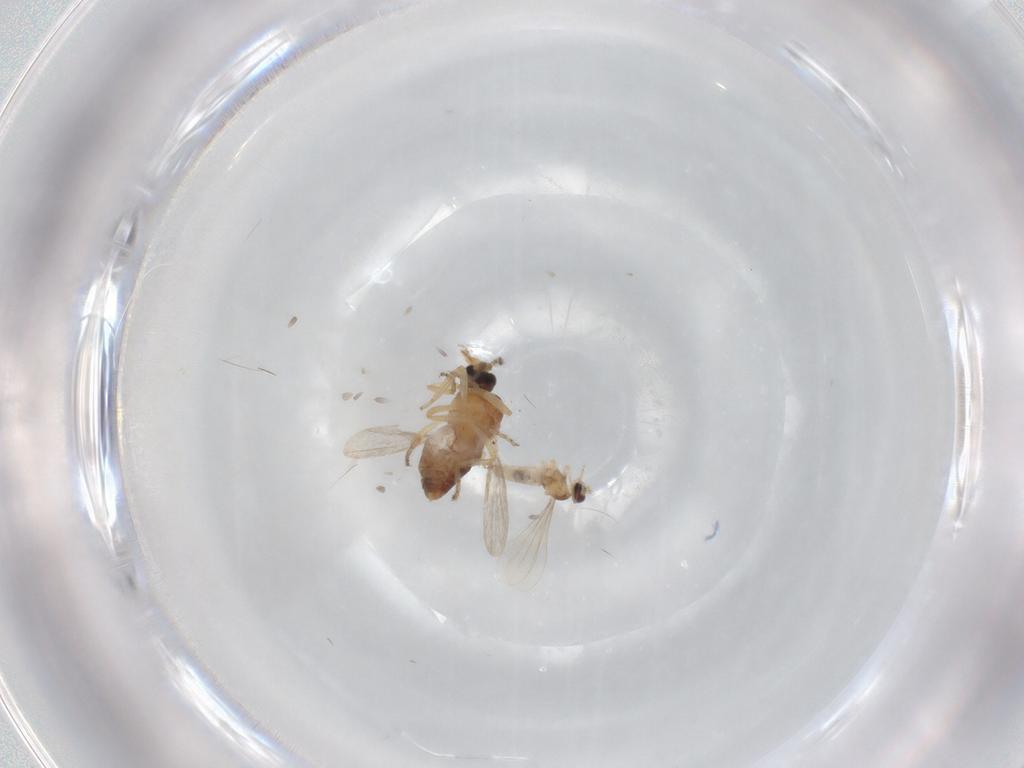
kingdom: Animalia
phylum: Arthropoda
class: Insecta
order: Diptera
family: Ceratopogonidae
